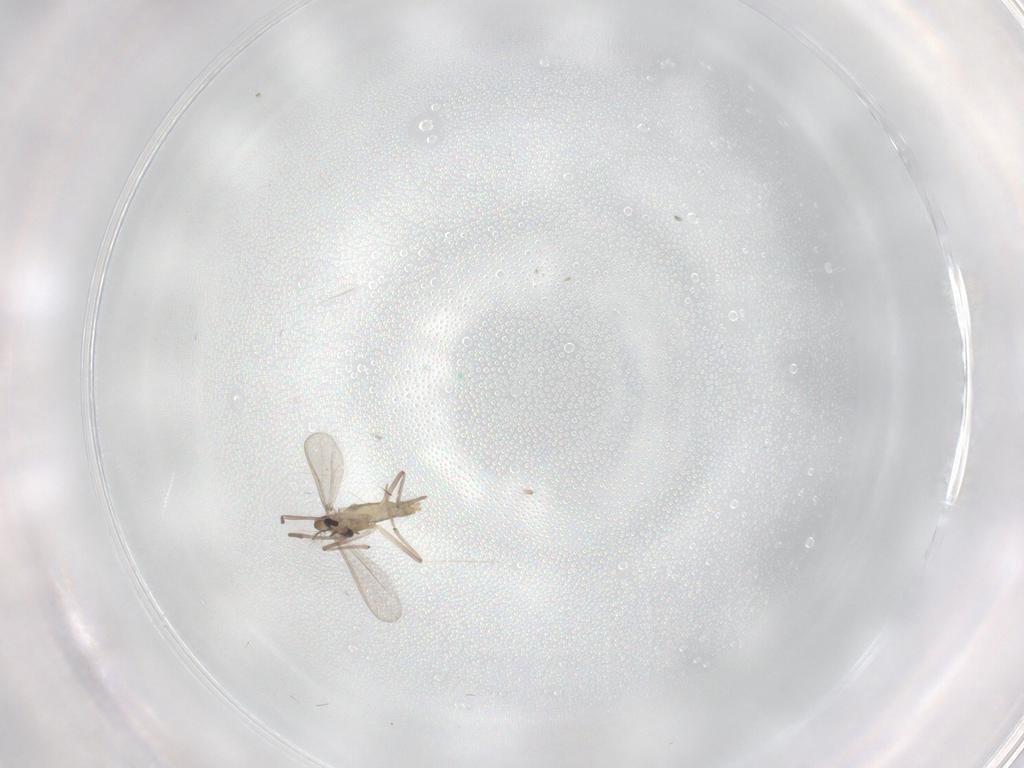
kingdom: Animalia
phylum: Arthropoda
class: Insecta
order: Diptera
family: Chironomidae
